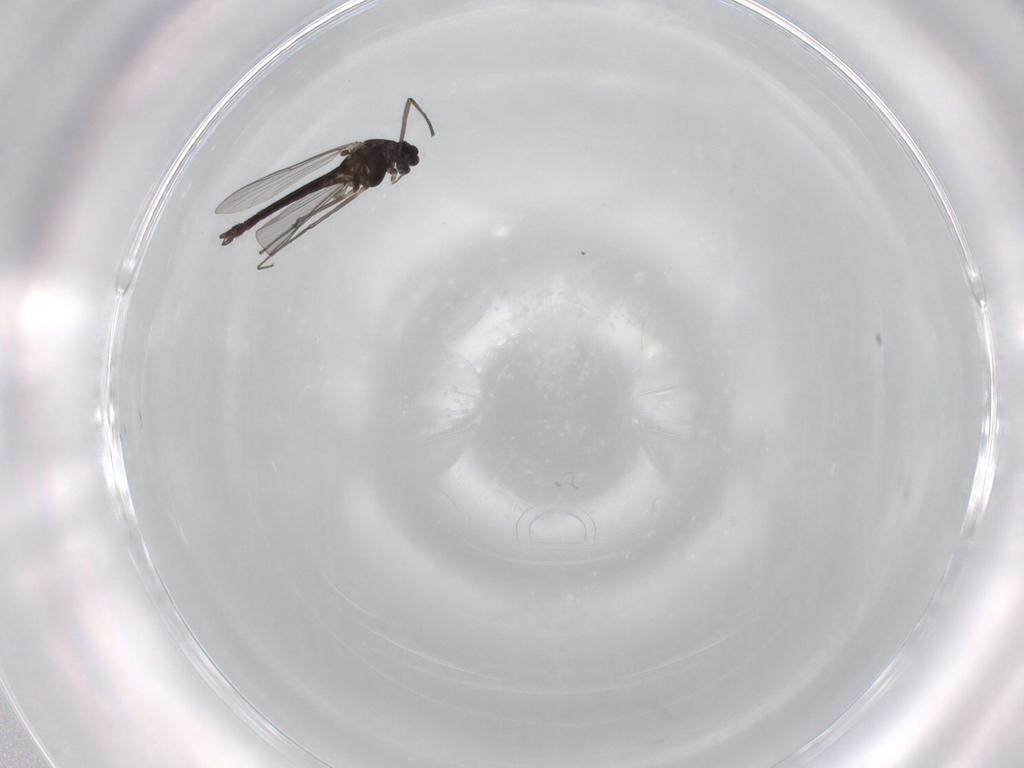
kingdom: Animalia
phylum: Arthropoda
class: Insecta
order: Diptera
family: Chironomidae
